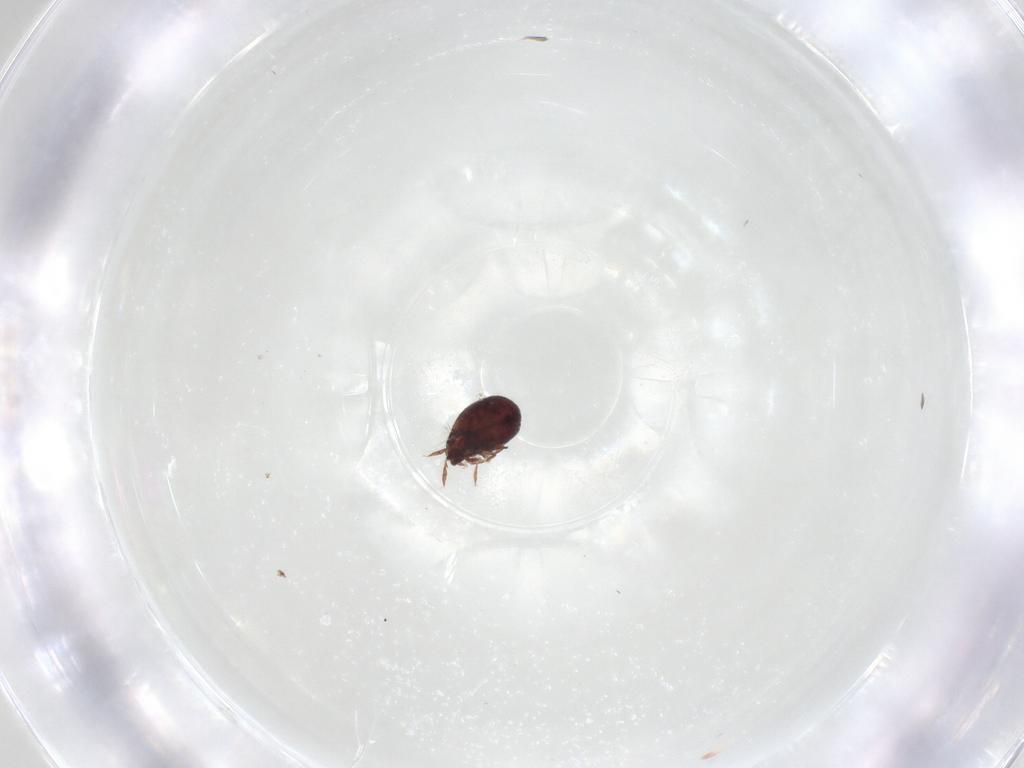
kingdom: Animalia
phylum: Arthropoda
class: Arachnida
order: Sarcoptiformes
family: Humerobatidae
